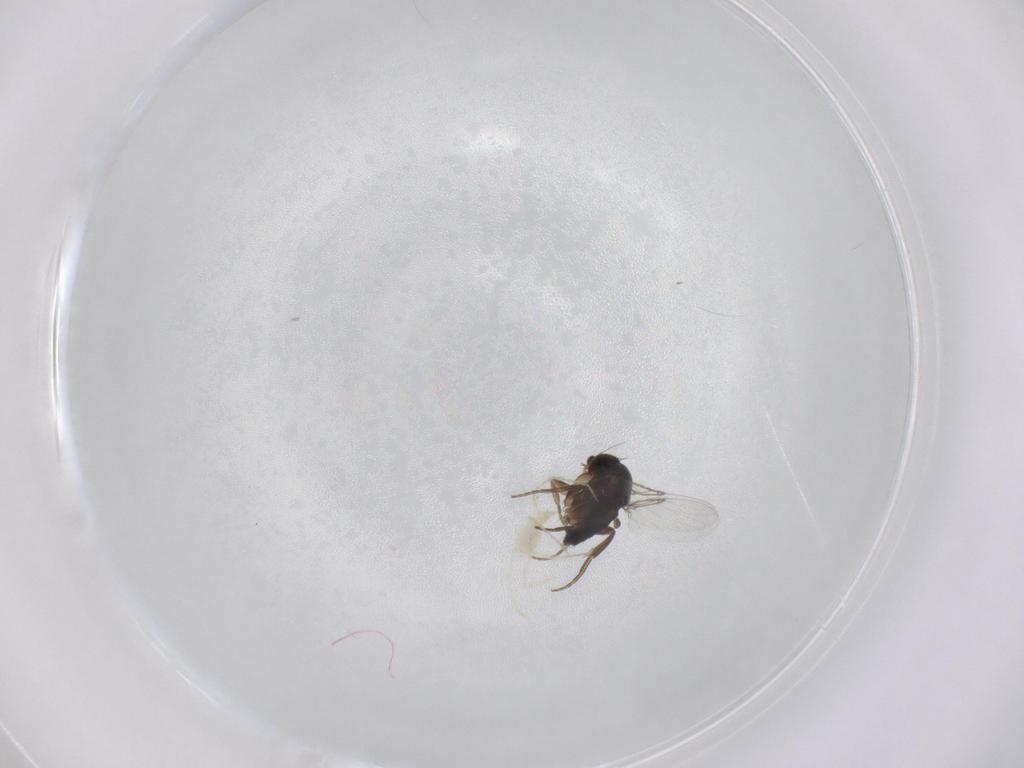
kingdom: Animalia
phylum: Arthropoda
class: Insecta
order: Diptera
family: Phoridae
